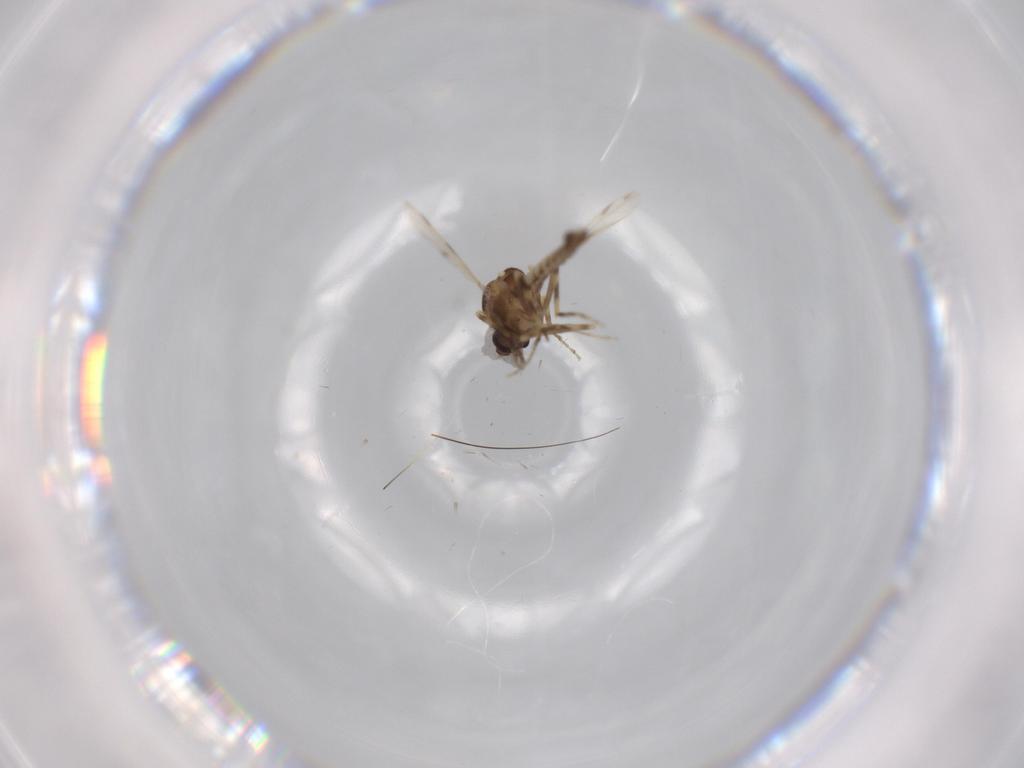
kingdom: Animalia
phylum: Arthropoda
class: Insecta
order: Diptera
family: Ceratopogonidae
